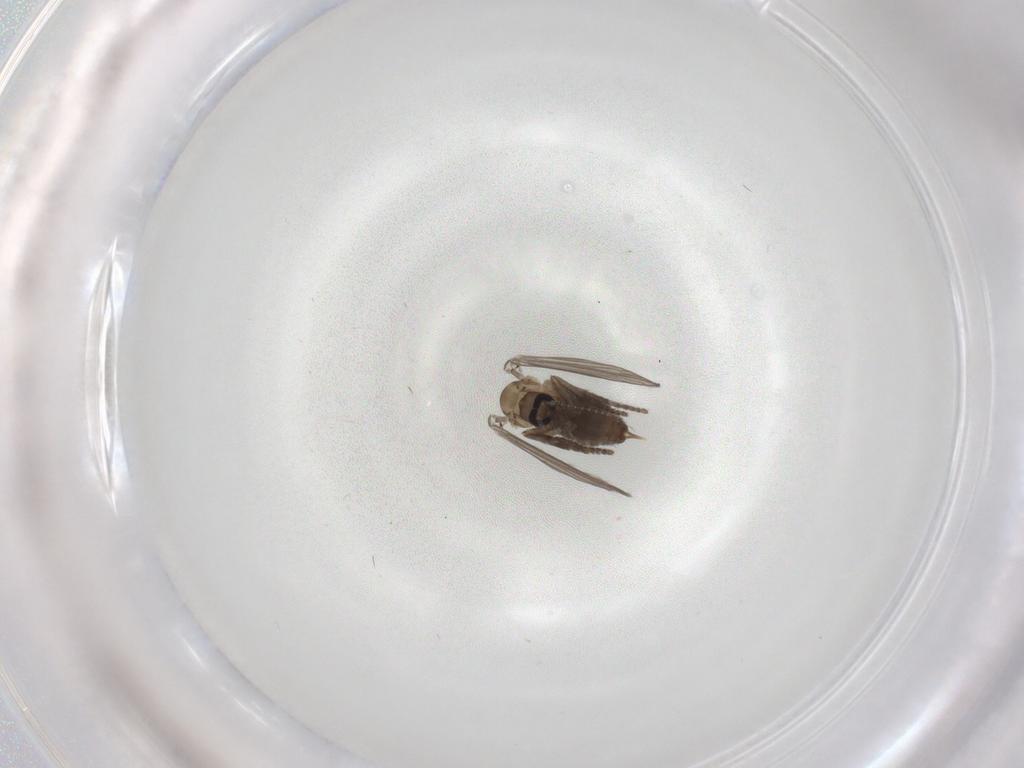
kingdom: Animalia
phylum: Arthropoda
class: Insecta
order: Diptera
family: Psychodidae
